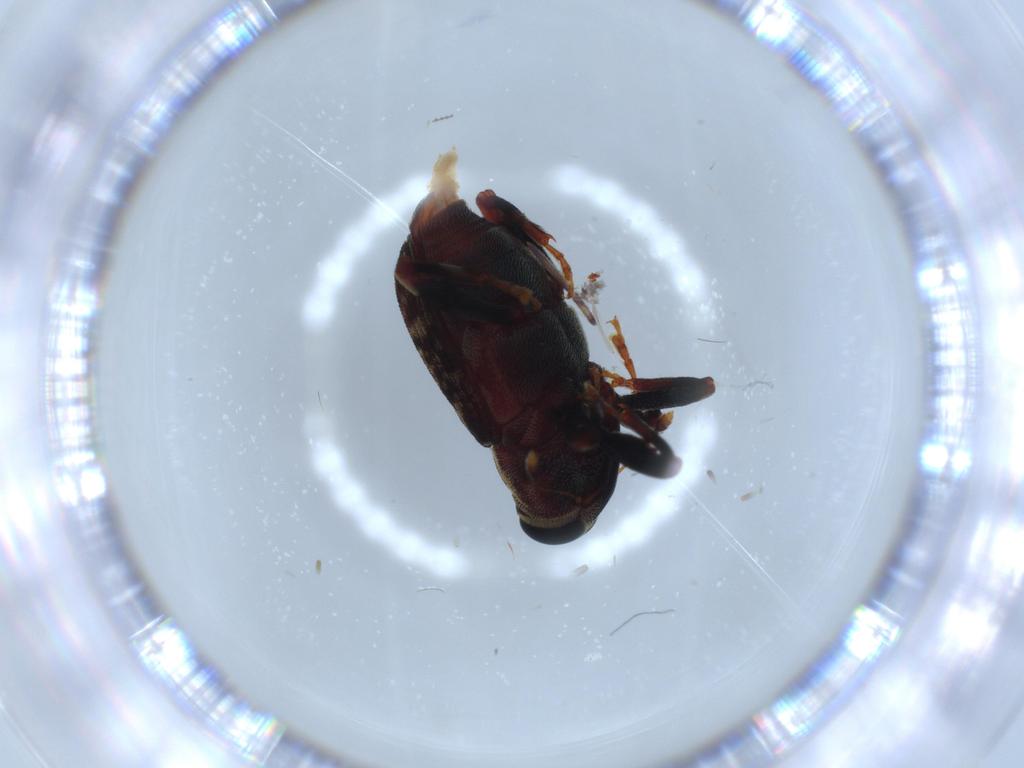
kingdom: Animalia
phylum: Arthropoda
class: Insecta
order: Coleoptera
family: Curculionidae
